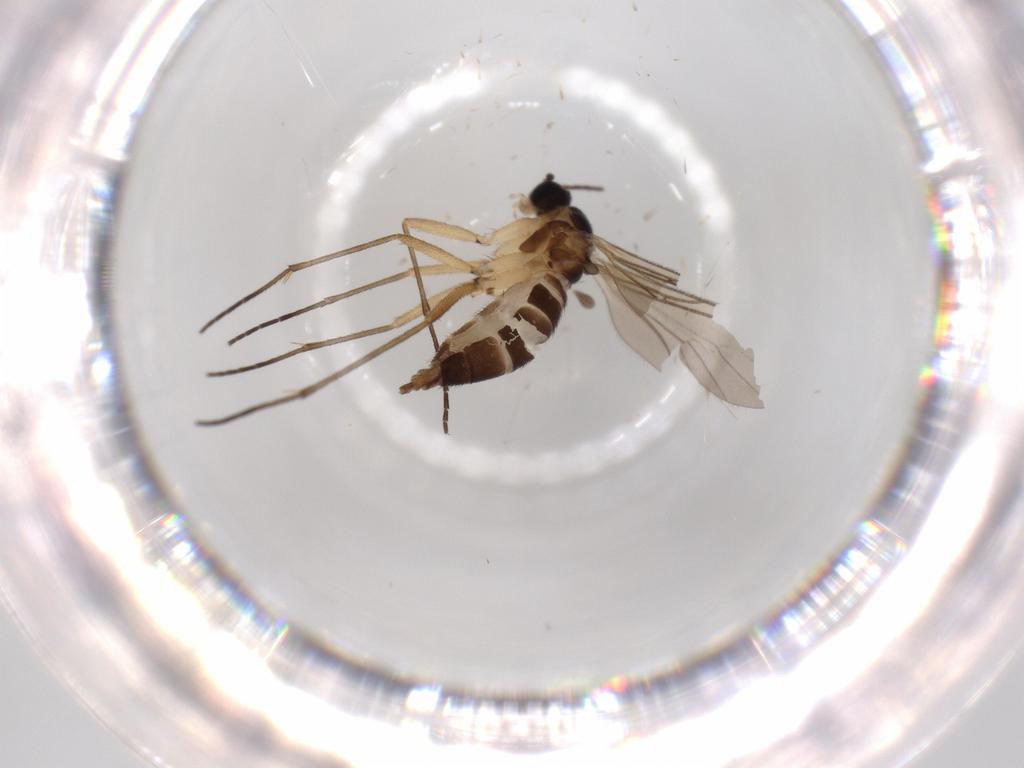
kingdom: Animalia
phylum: Arthropoda
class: Insecta
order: Diptera
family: Sciaridae
